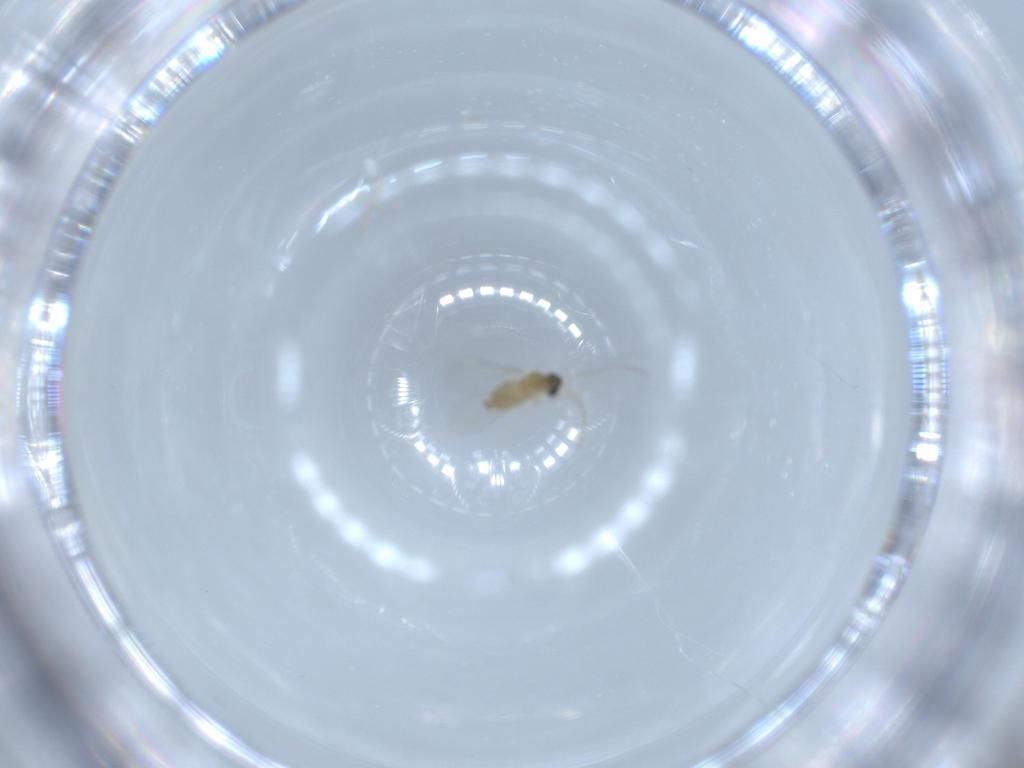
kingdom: Animalia
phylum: Arthropoda
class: Insecta
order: Diptera
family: Cecidomyiidae
